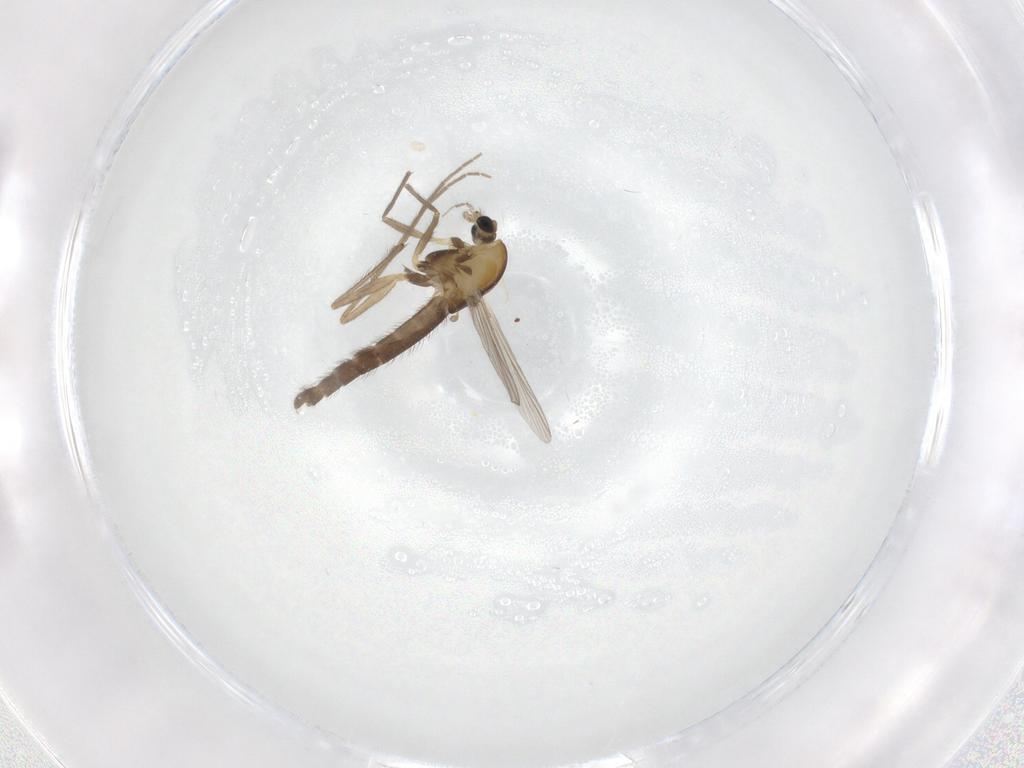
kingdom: Animalia
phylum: Arthropoda
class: Insecta
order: Diptera
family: Chironomidae
